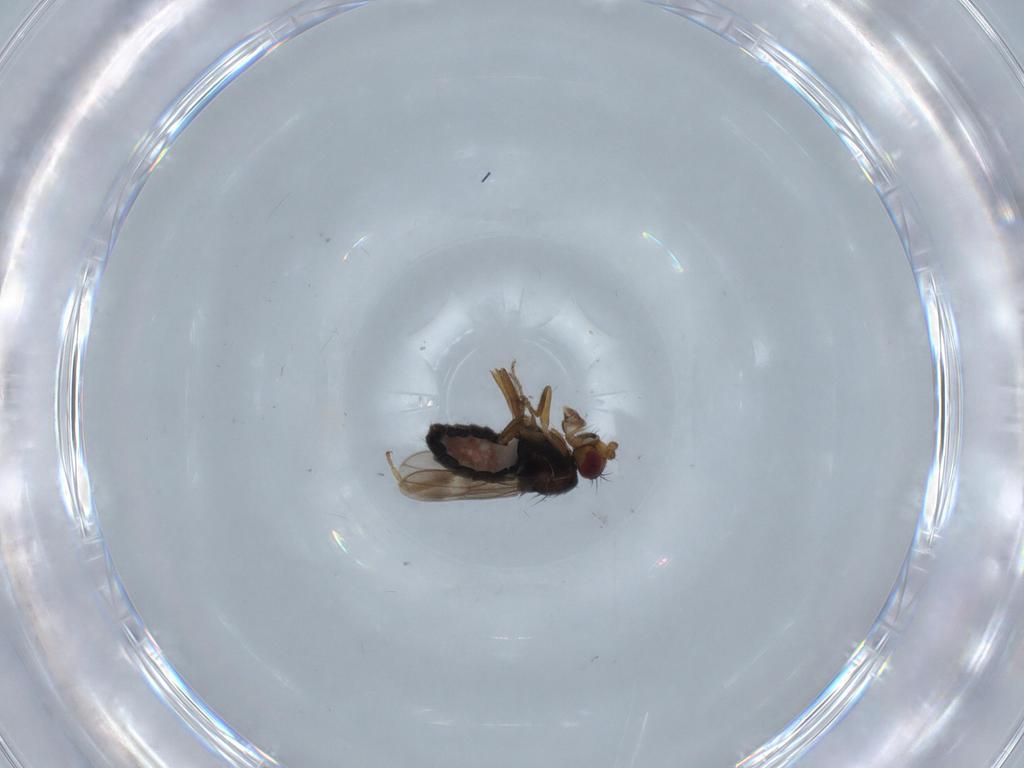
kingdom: Animalia
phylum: Arthropoda
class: Insecta
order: Diptera
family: Sphaeroceridae
